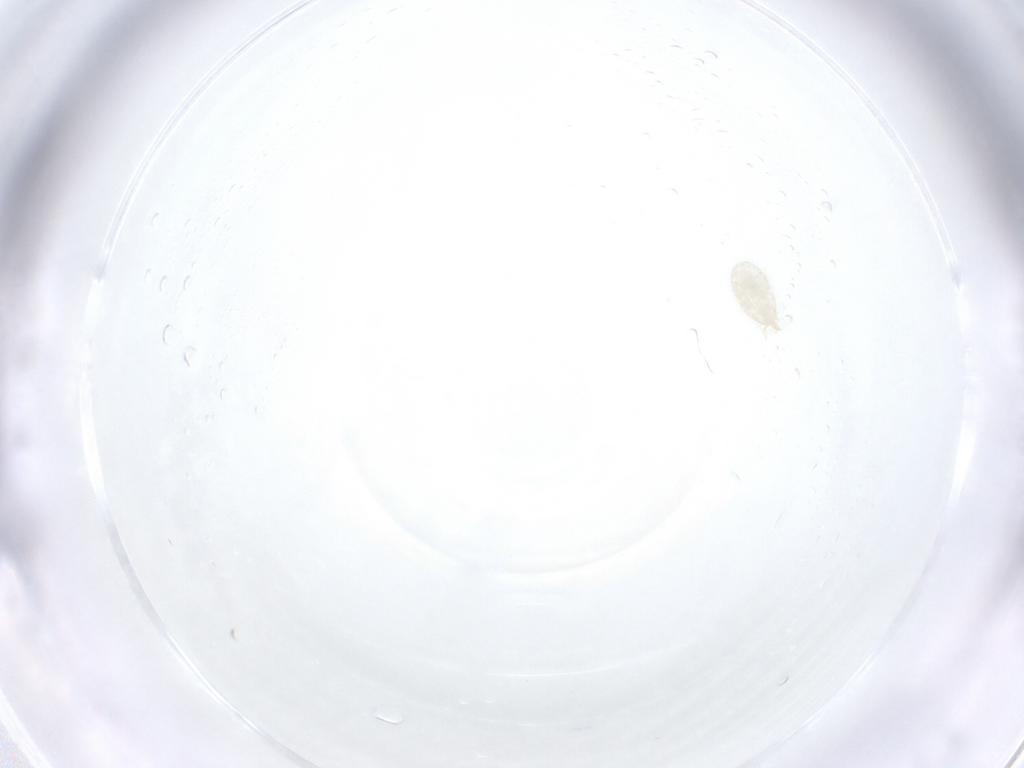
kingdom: Animalia
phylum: Arthropoda
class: Arachnida
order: Trombidiformes
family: Erythraeidae
